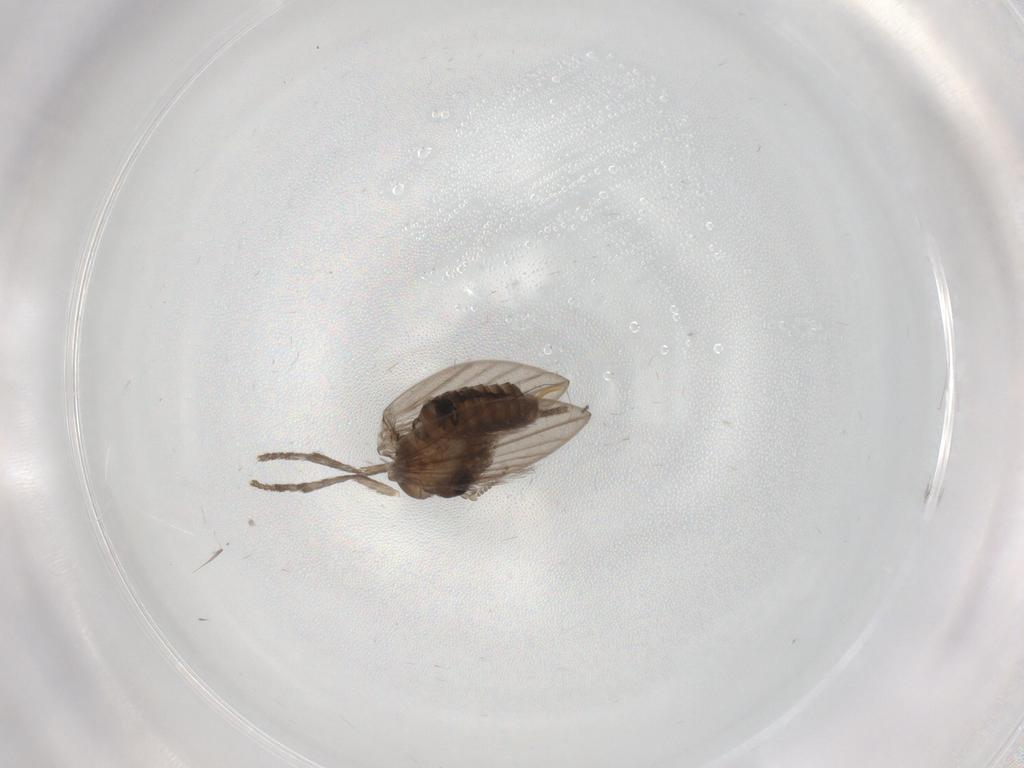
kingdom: Animalia
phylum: Arthropoda
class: Insecta
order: Diptera
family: Psychodidae
